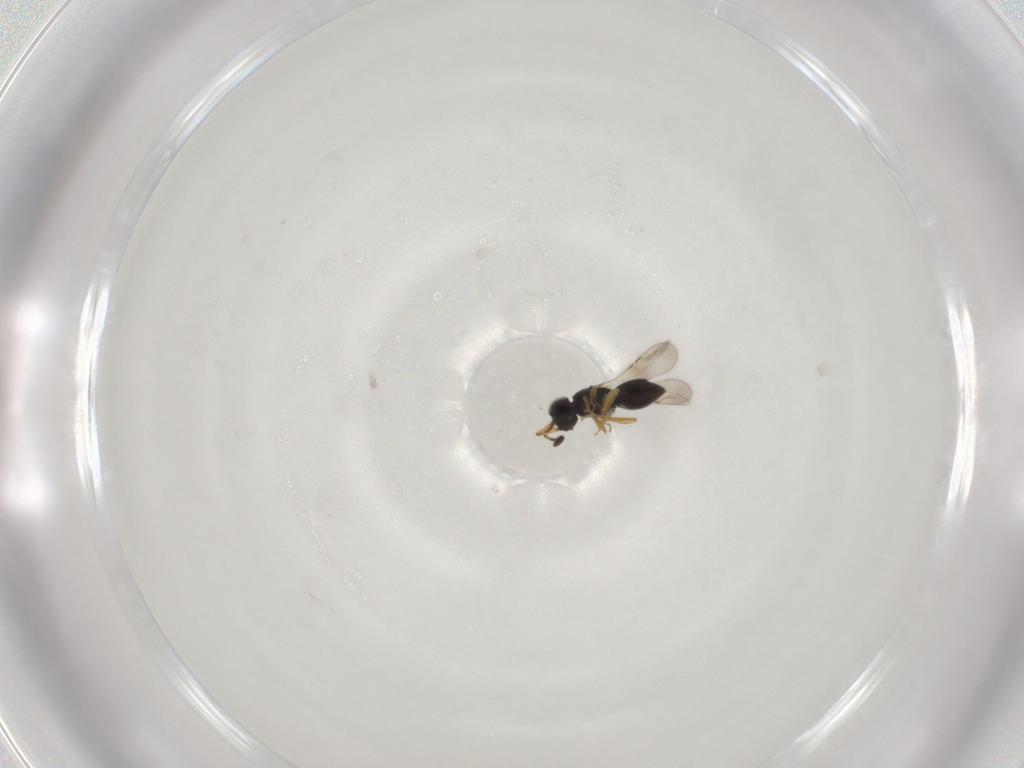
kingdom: Animalia
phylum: Arthropoda
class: Insecta
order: Hymenoptera
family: Ceraphronidae
